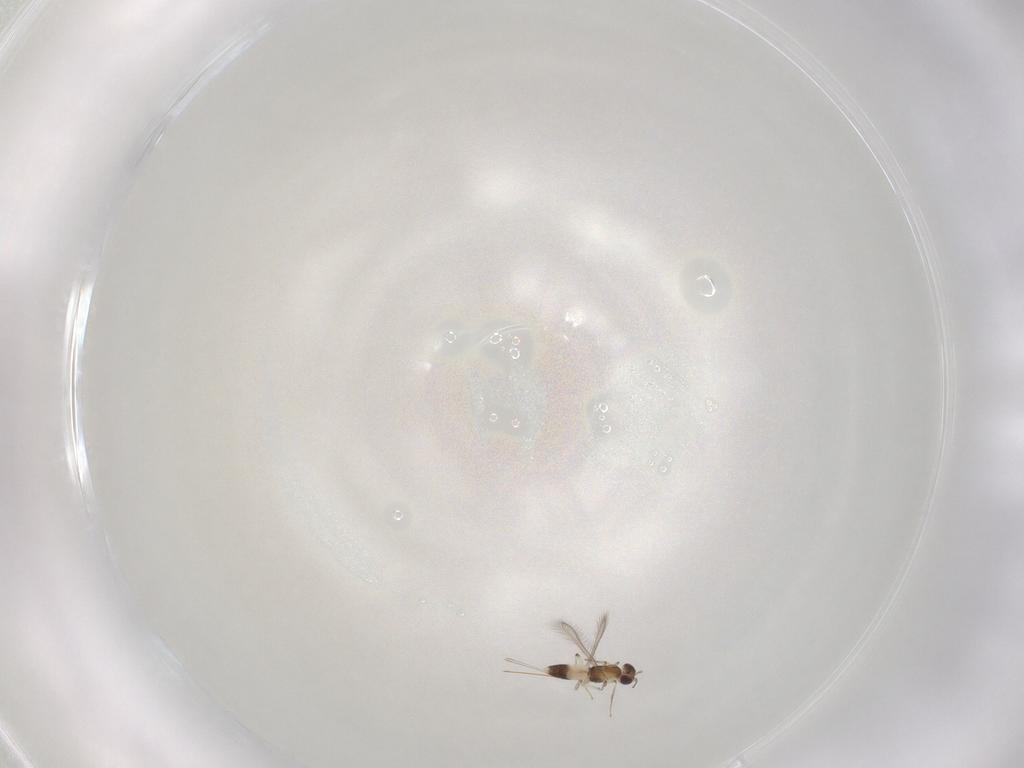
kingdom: Animalia
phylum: Arthropoda
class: Insecta
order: Hymenoptera
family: Mymaridae
